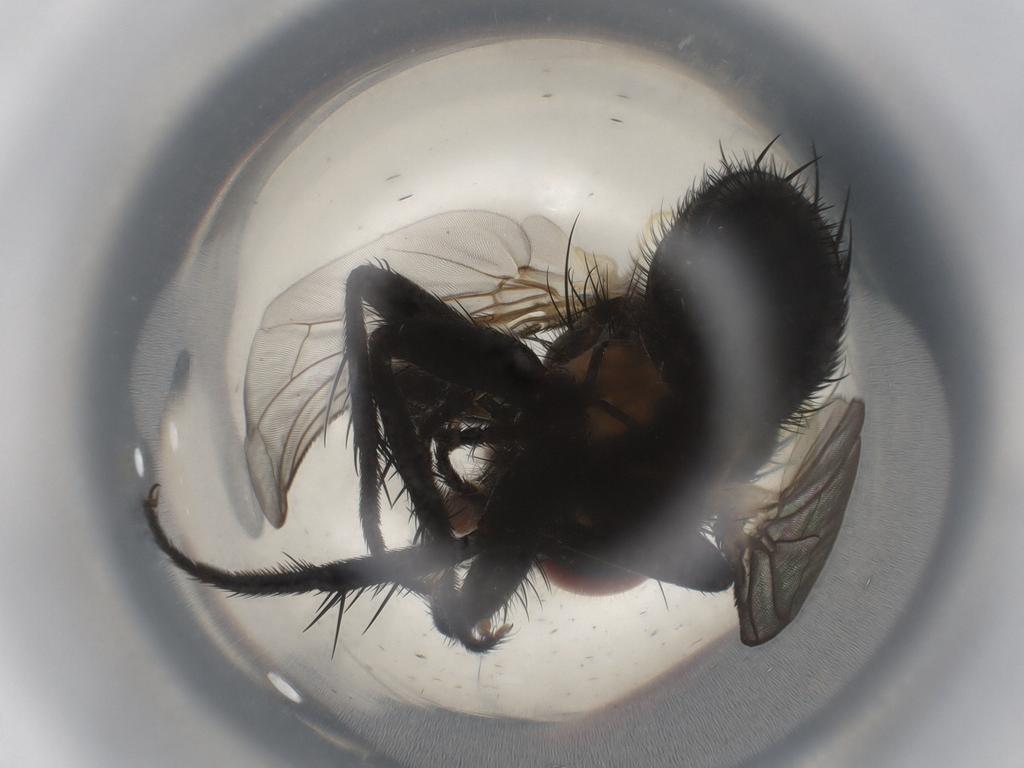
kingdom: Animalia
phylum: Arthropoda
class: Insecta
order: Diptera
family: Tachinidae
